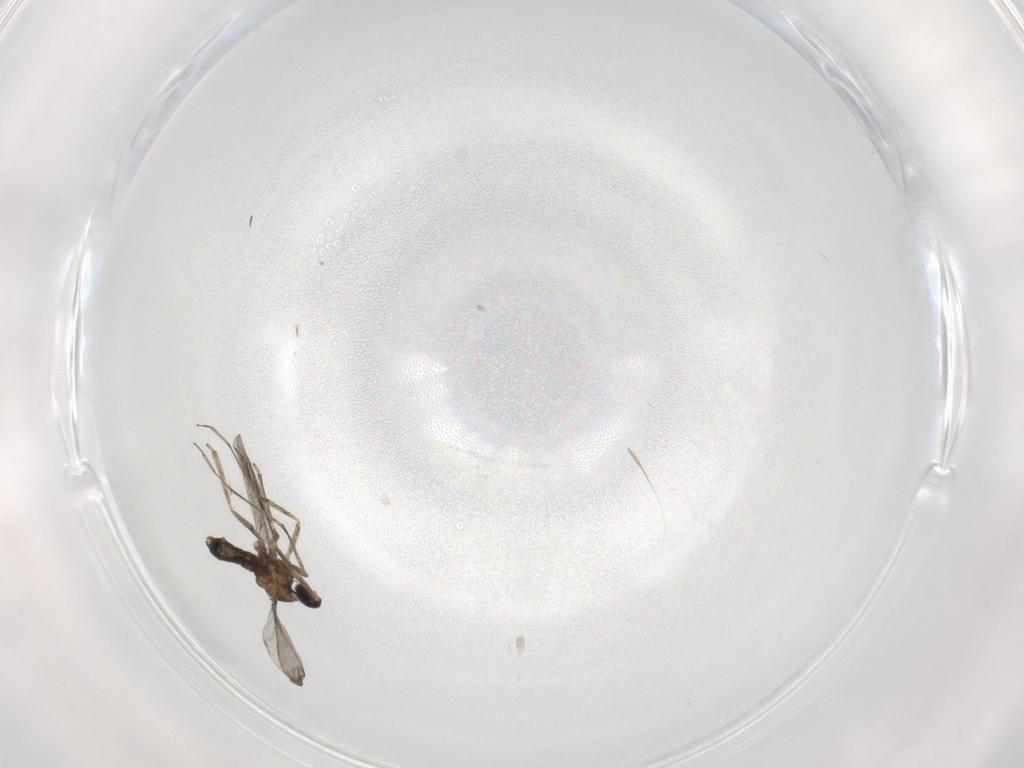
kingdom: Animalia
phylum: Arthropoda
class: Insecta
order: Diptera
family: Cecidomyiidae
